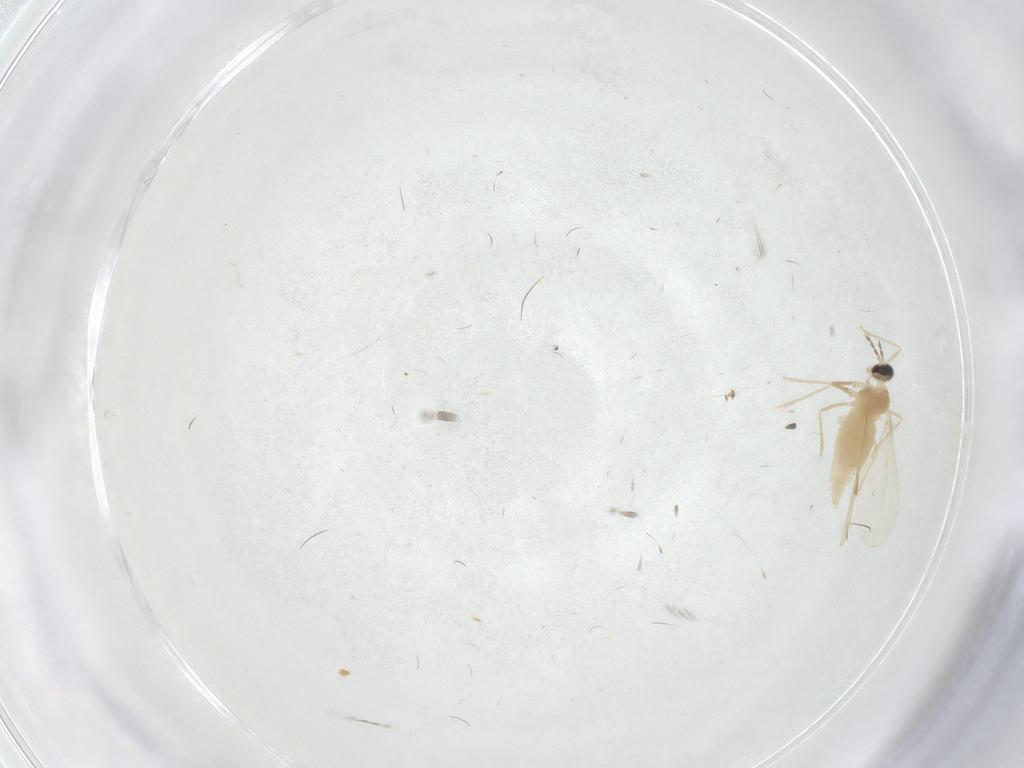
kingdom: Animalia
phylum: Arthropoda
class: Insecta
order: Diptera
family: Cecidomyiidae
